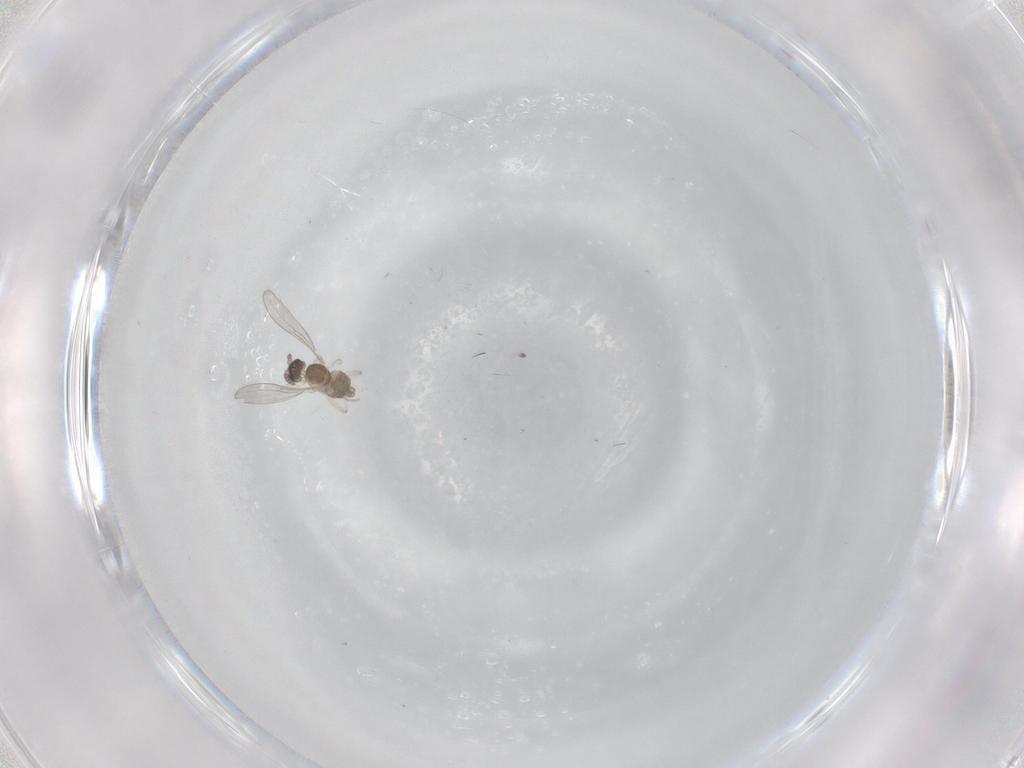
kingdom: Animalia
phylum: Arthropoda
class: Insecta
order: Diptera
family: Cecidomyiidae
